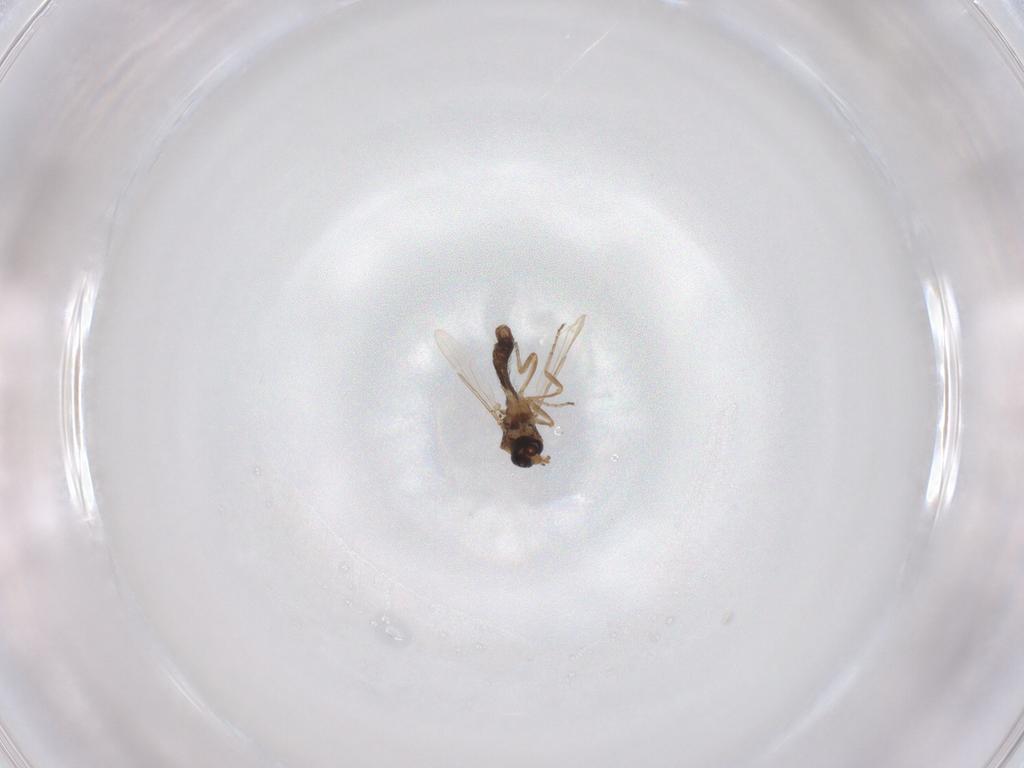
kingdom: Animalia
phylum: Arthropoda
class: Insecta
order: Diptera
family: Ceratopogonidae
